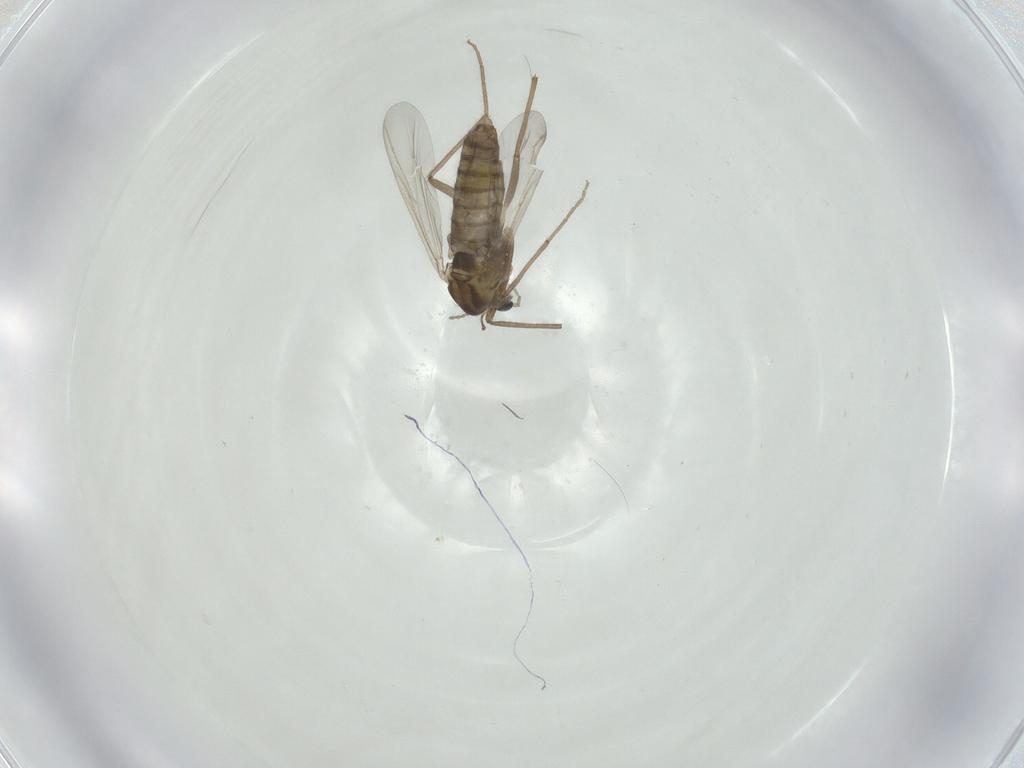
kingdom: Animalia
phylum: Arthropoda
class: Insecta
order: Diptera
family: Chironomidae
